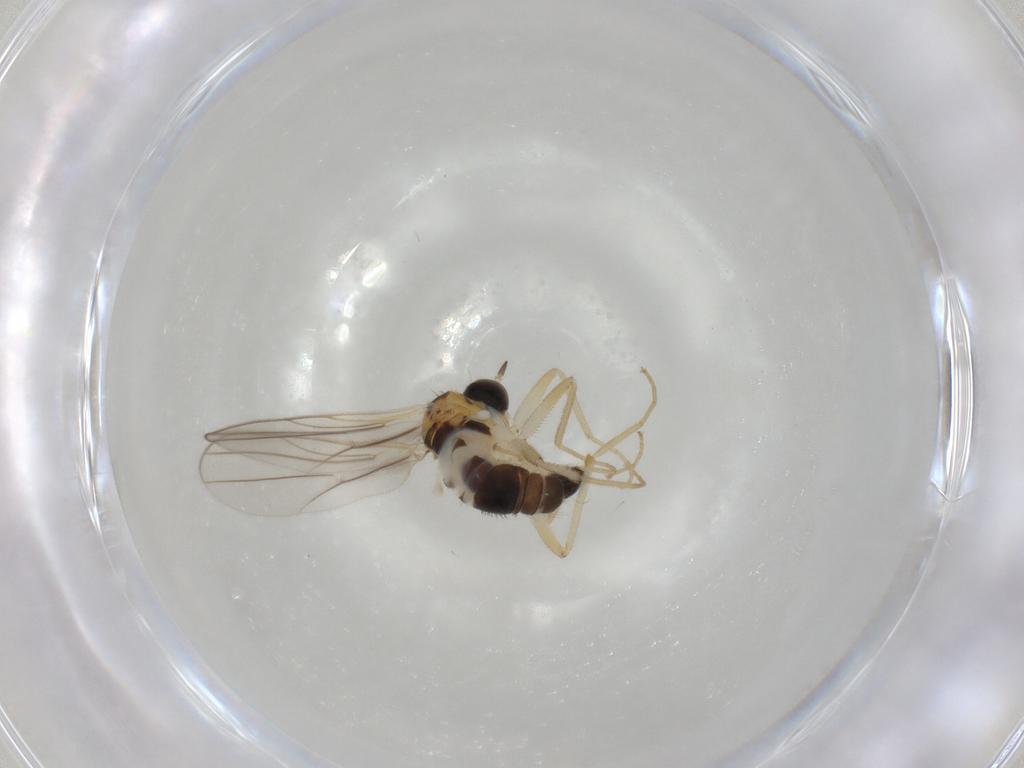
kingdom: Animalia
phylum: Arthropoda
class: Insecta
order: Diptera
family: Hybotidae
